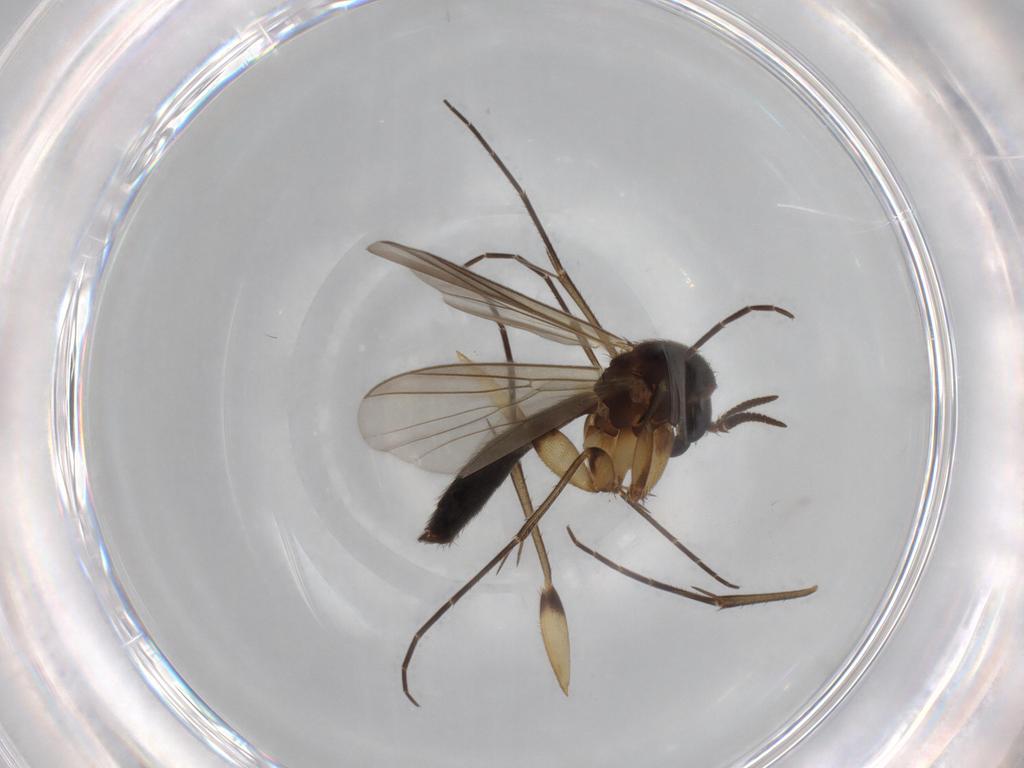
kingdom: Animalia
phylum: Arthropoda
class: Insecta
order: Diptera
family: Mycetophilidae
